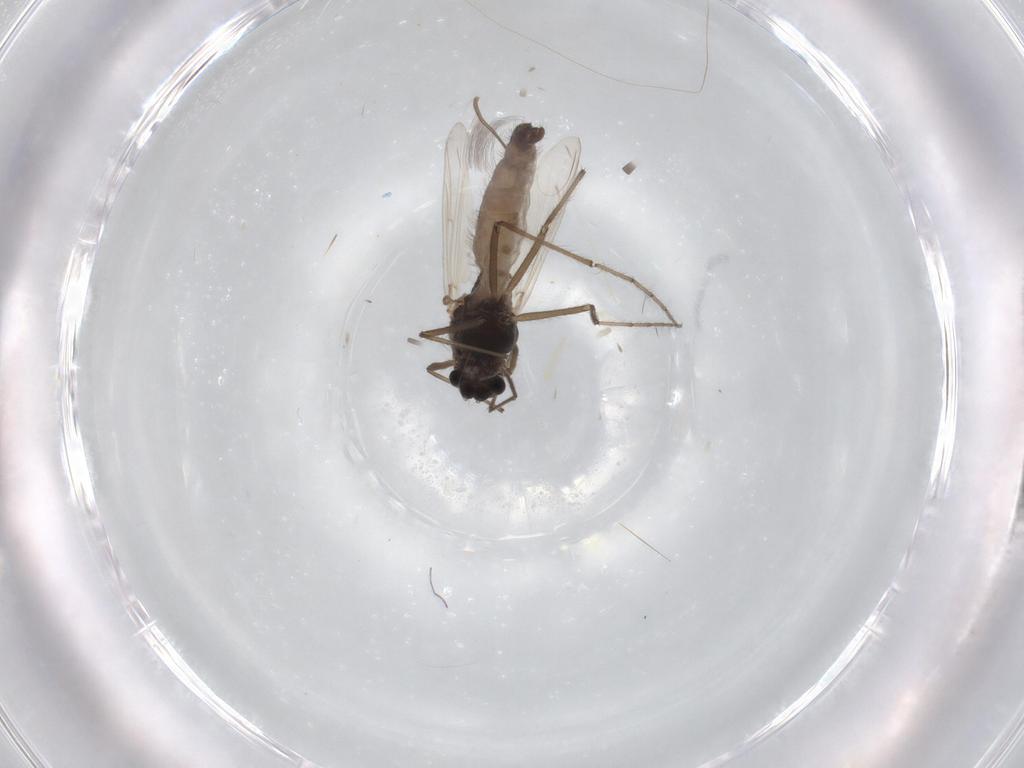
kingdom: Animalia
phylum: Arthropoda
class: Insecta
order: Diptera
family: Chironomidae
